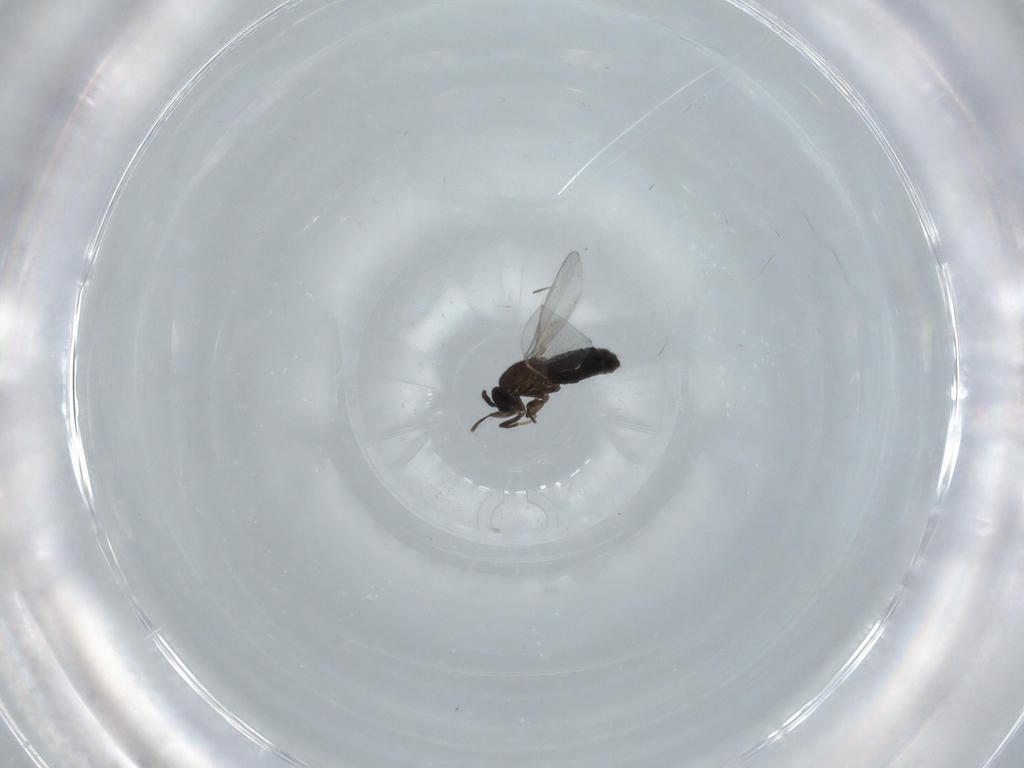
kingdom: Animalia
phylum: Arthropoda
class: Insecta
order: Diptera
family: Scatopsidae
